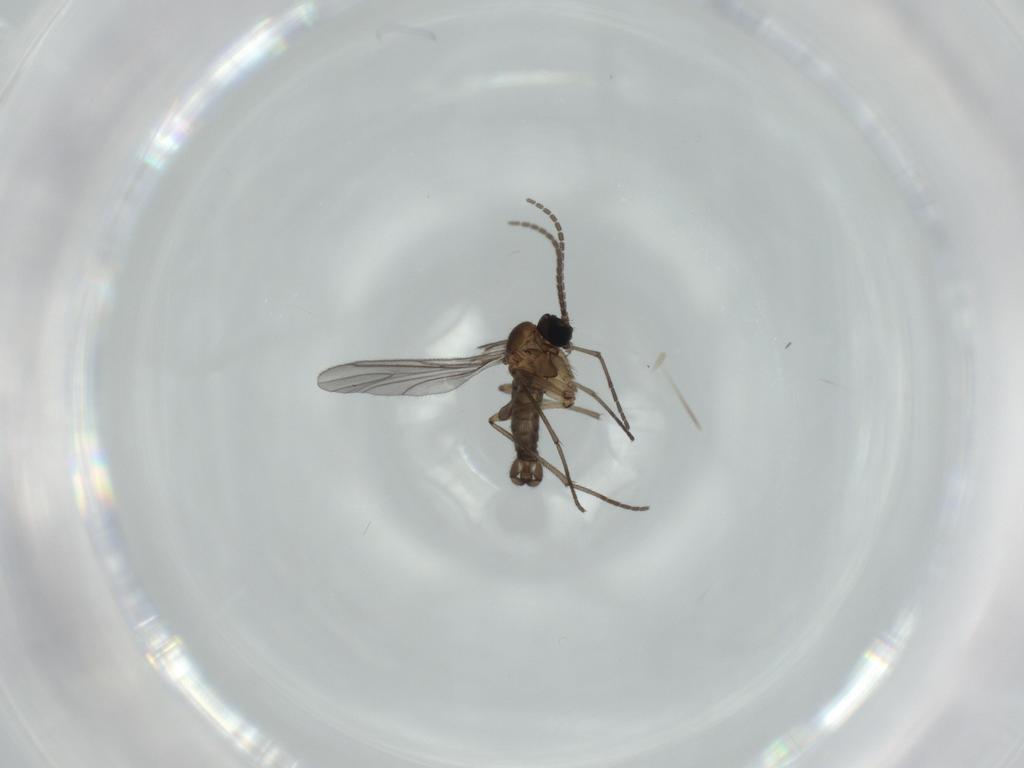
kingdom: Animalia
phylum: Arthropoda
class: Insecta
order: Diptera
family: Sciaridae
